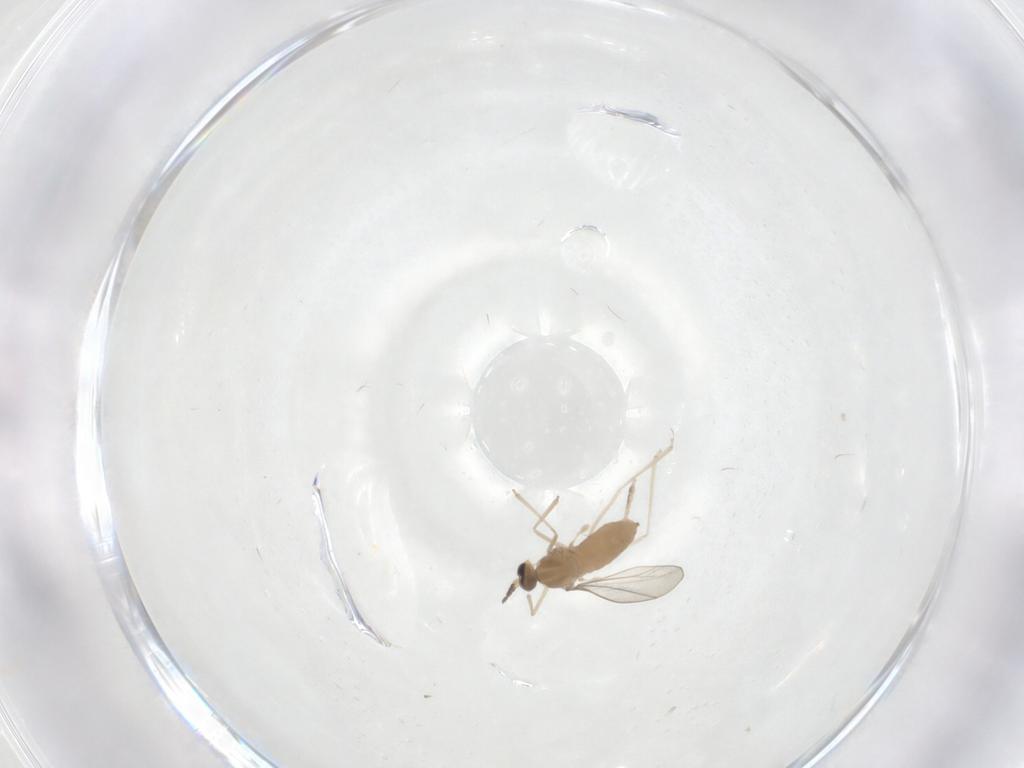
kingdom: Animalia
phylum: Arthropoda
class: Insecta
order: Diptera
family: Cecidomyiidae
